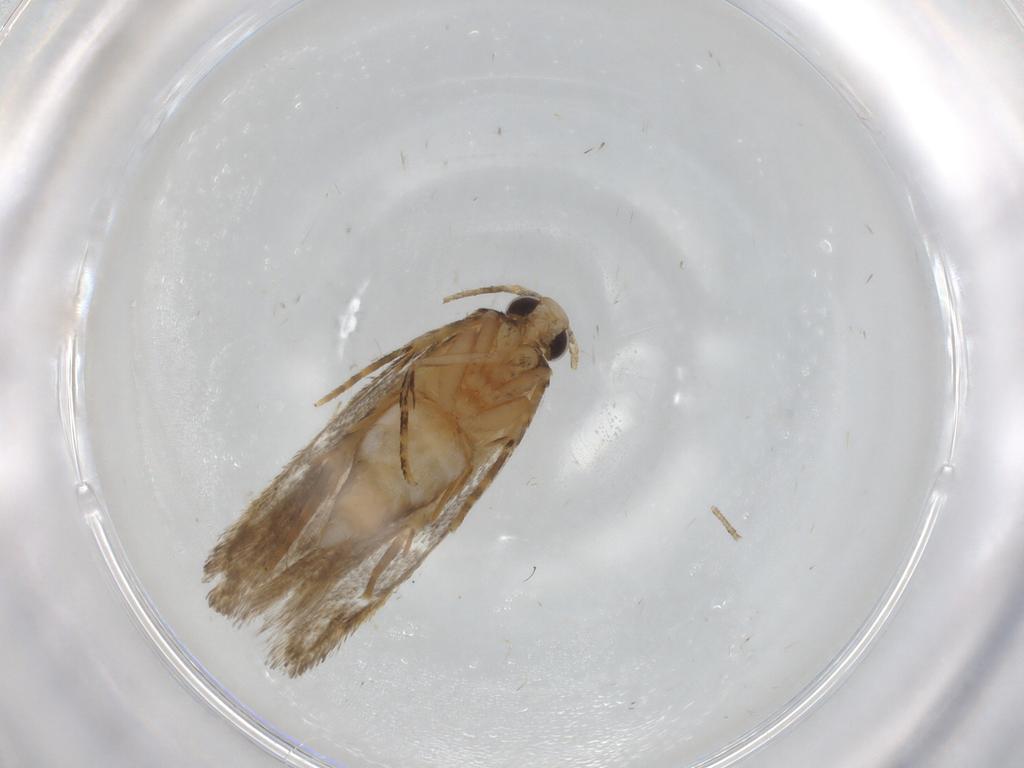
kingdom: Animalia
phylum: Arthropoda
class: Insecta
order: Lepidoptera
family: Autostichidae
